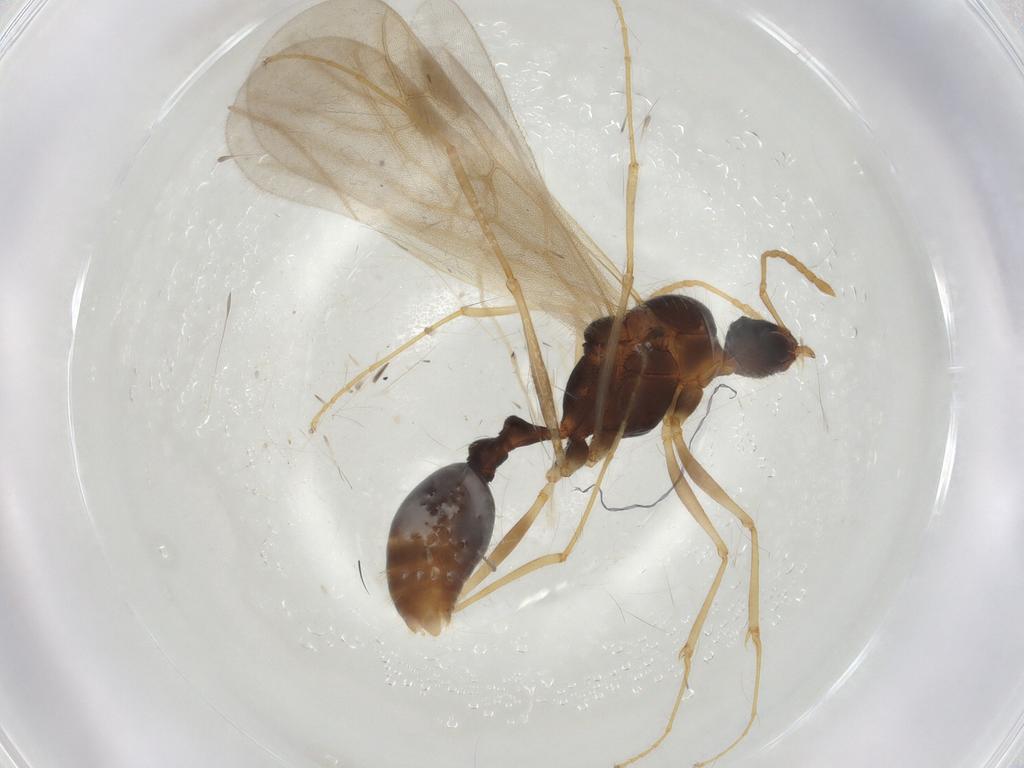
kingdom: Animalia
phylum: Arthropoda
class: Insecta
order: Hymenoptera
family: Formicidae
